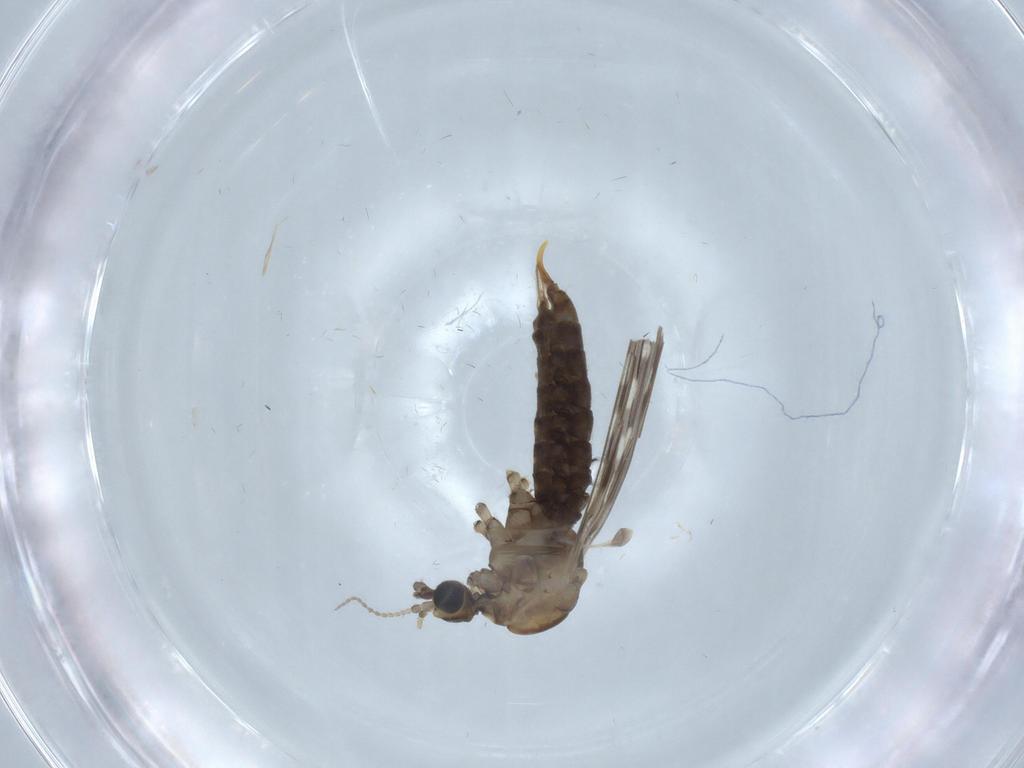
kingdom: Animalia
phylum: Arthropoda
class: Insecta
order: Diptera
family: Limoniidae
